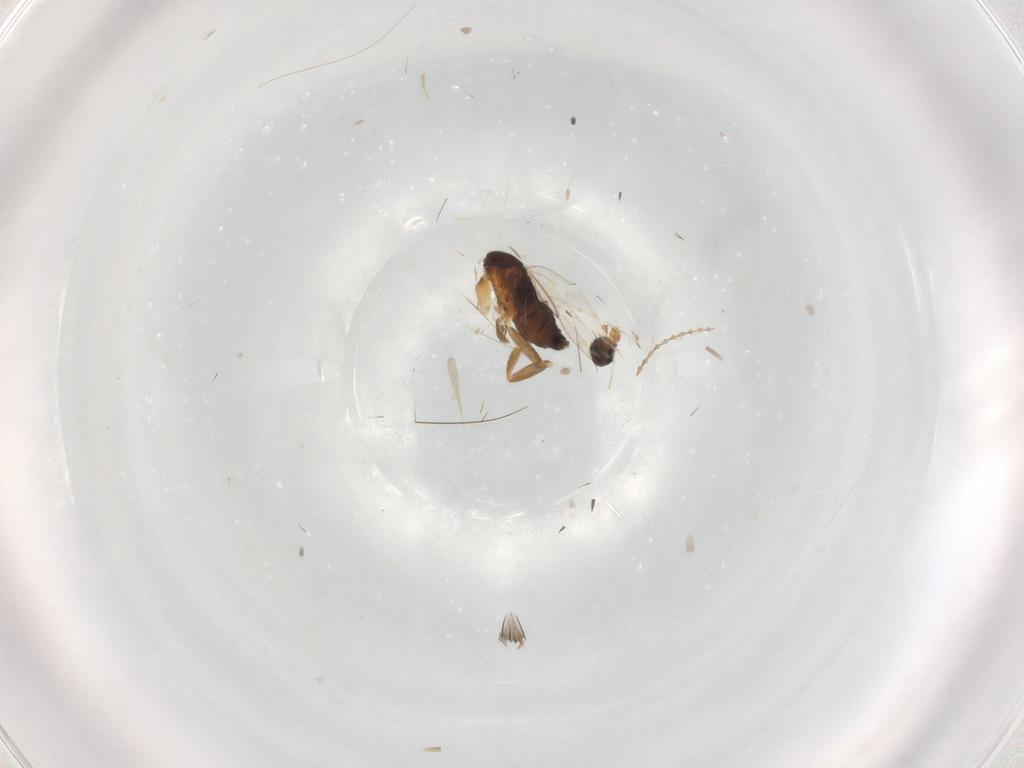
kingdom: Animalia
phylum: Arthropoda
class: Insecta
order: Diptera
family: Phoridae
